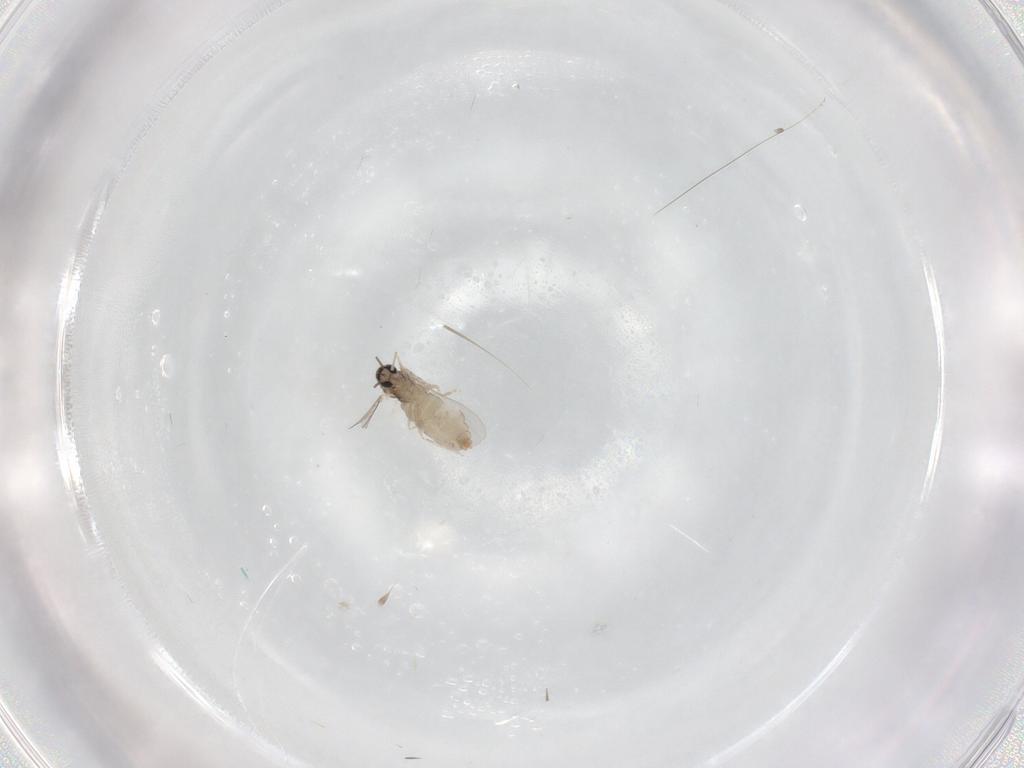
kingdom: Animalia
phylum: Arthropoda
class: Insecta
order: Diptera
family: Cecidomyiidae
